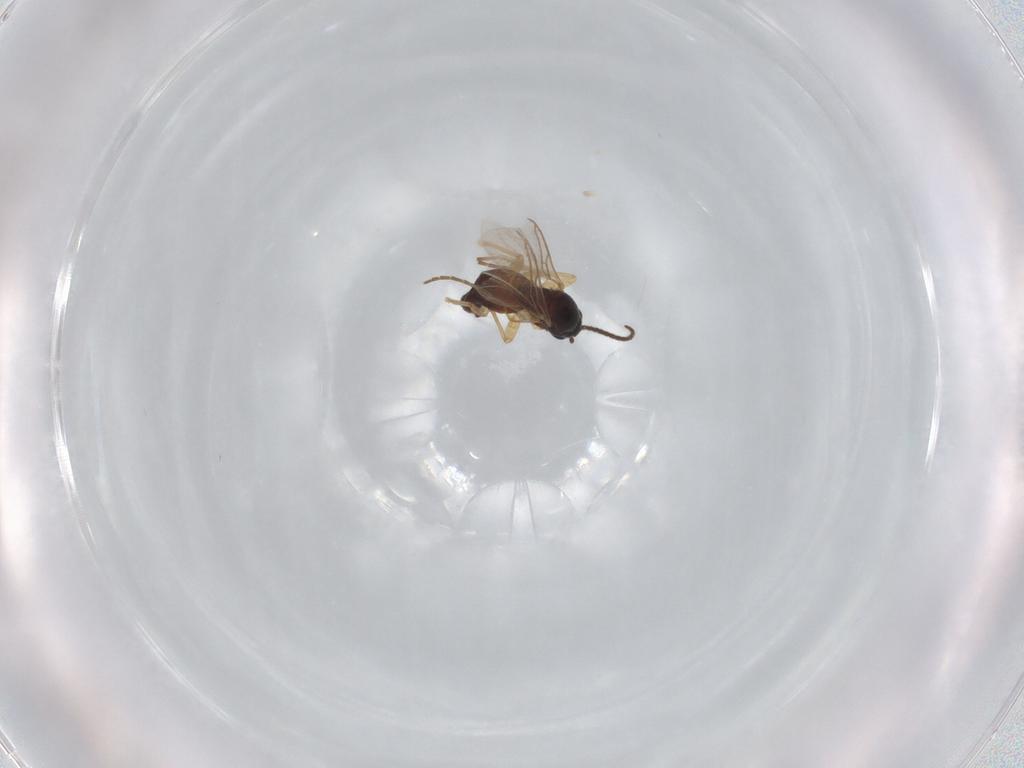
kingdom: Animalia
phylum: Arthropoda
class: Insecta
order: Diptera
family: Sciaridae
